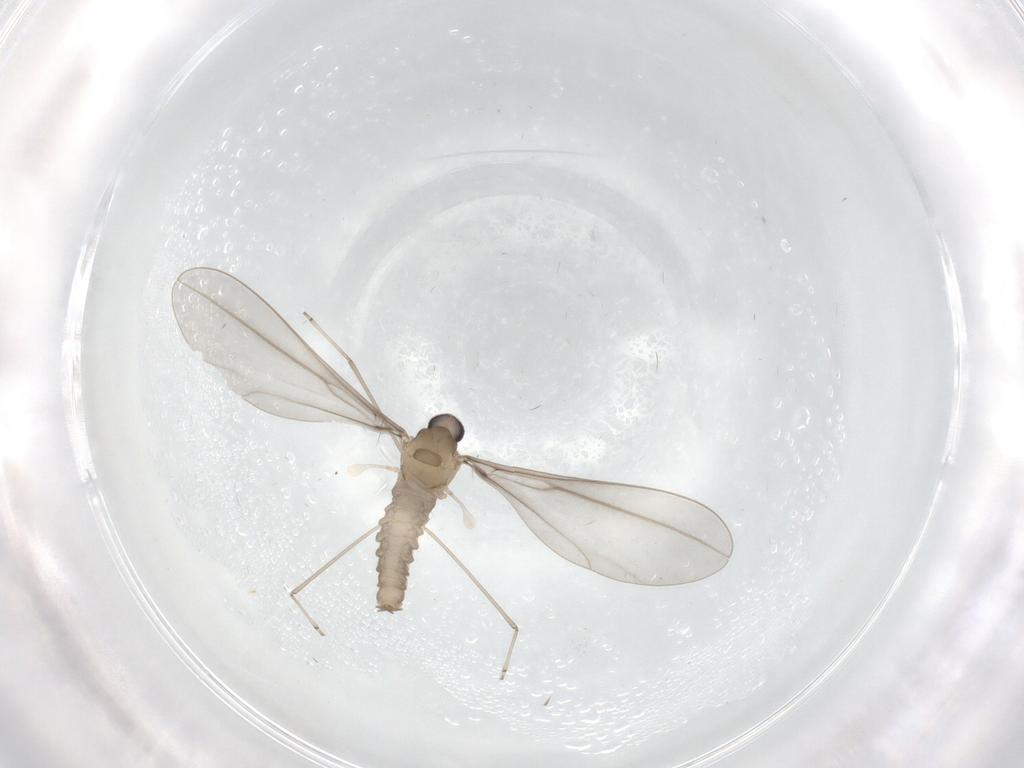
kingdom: Animalia
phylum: Arthropoda
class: Insecta
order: Diptera
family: Cecidomyiidae
